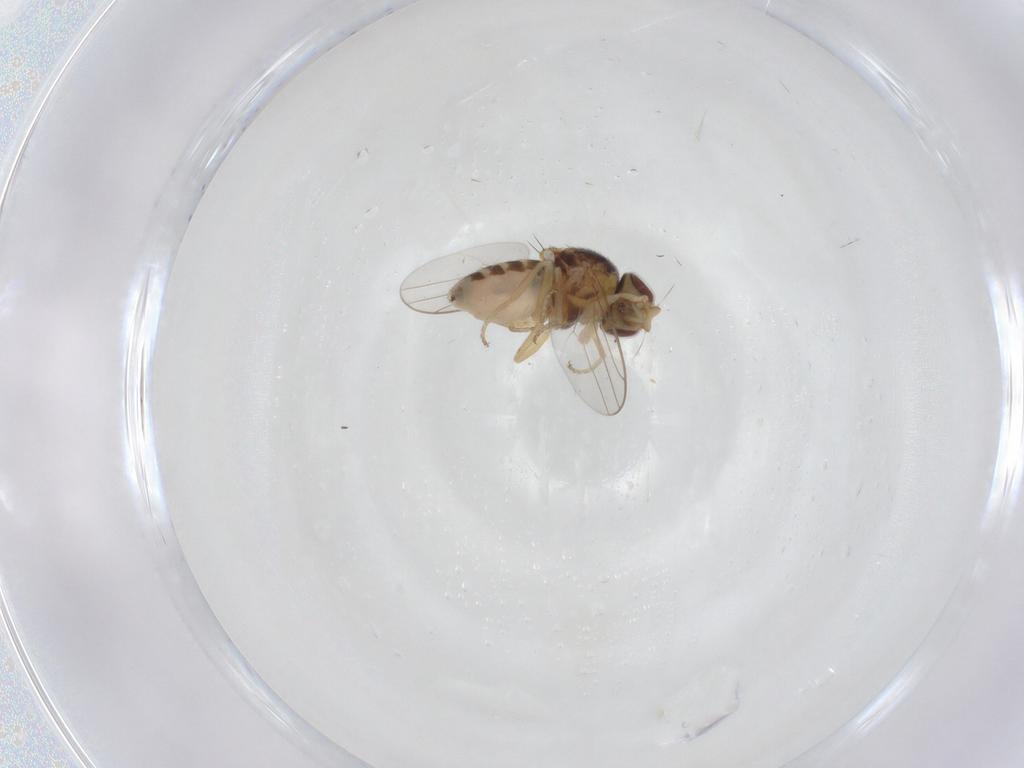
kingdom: Animalia
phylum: Arthropoda
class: Insecta
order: Diptera
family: Chloropidae
